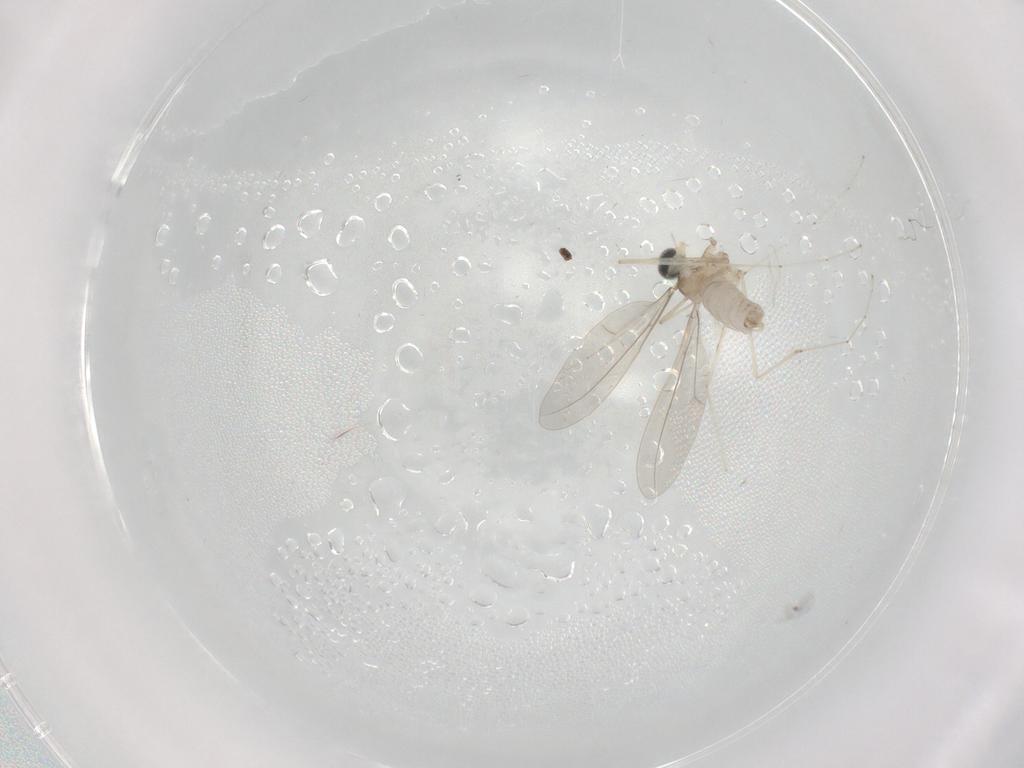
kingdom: Animalia
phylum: Arthropoda
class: Insecta
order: Diptera
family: Cecidomyiidae
